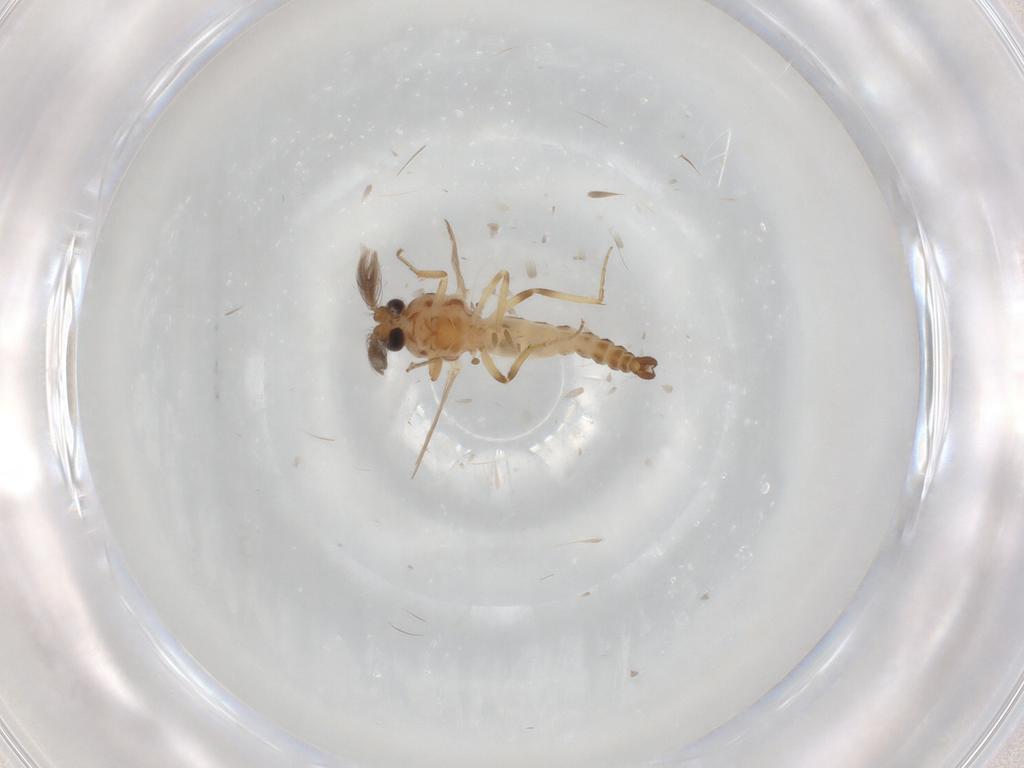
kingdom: Animalia
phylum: Arthropoda
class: Insecta
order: Diptera
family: Ceratopogonidae
